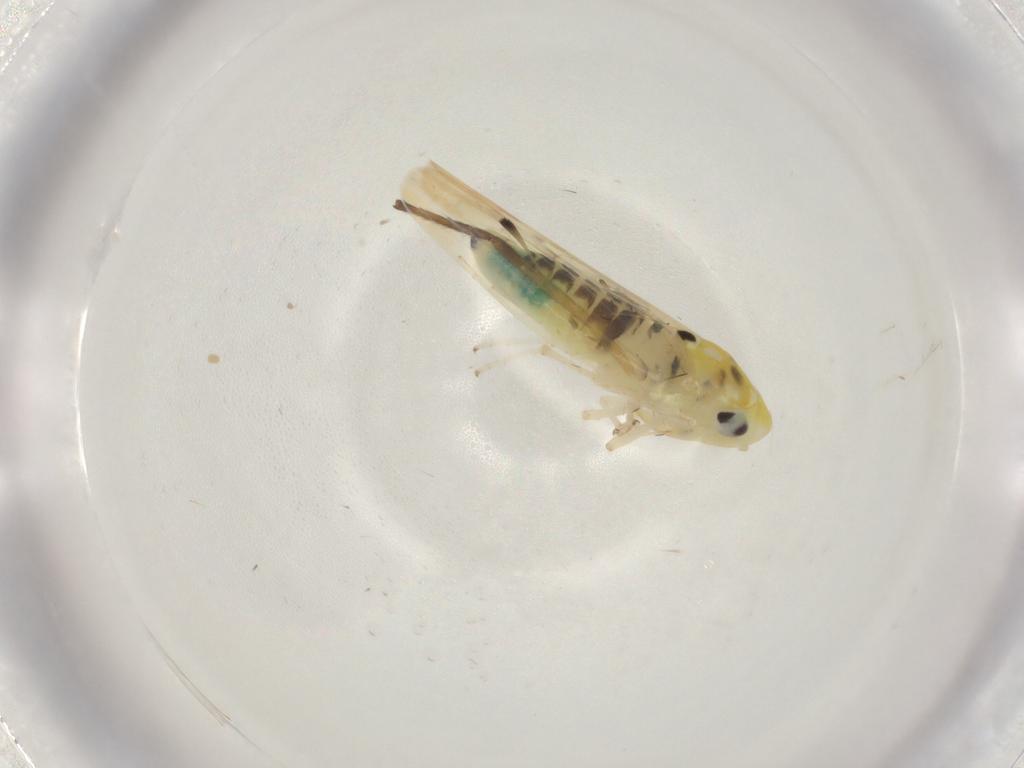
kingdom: Animalia
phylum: Arthropoda
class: Insecta
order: Hemiptera
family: Cicadellidae
